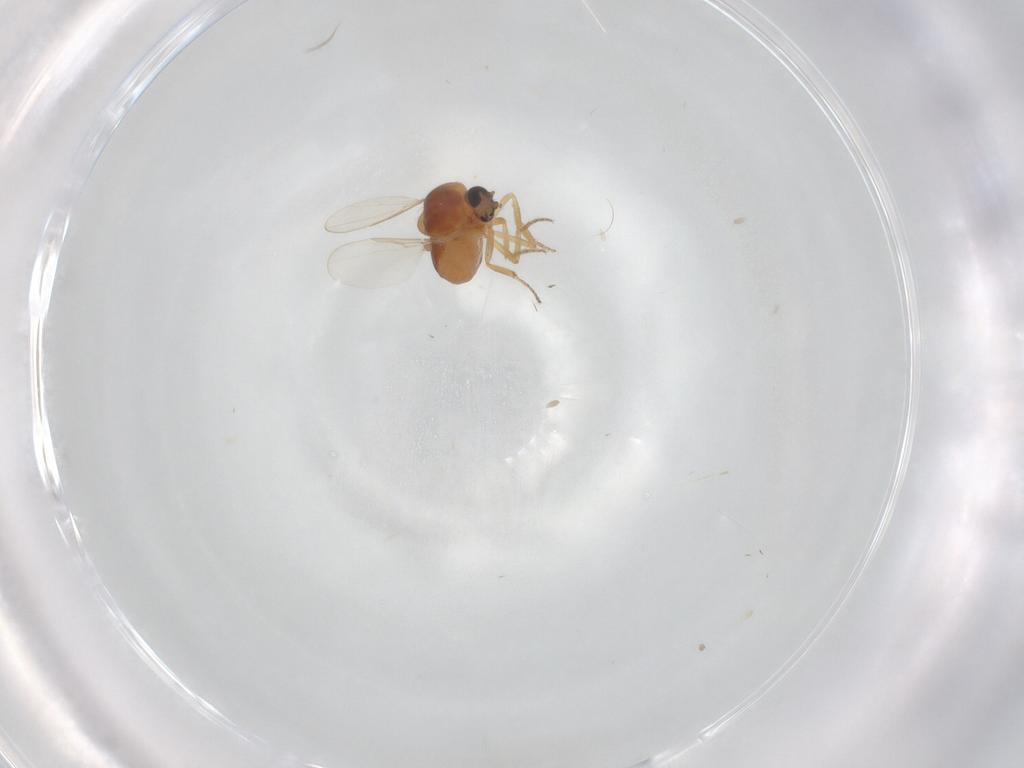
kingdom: Animalia
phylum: Arthropoda
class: Insecta
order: Diptera
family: Ceratopogonidae
